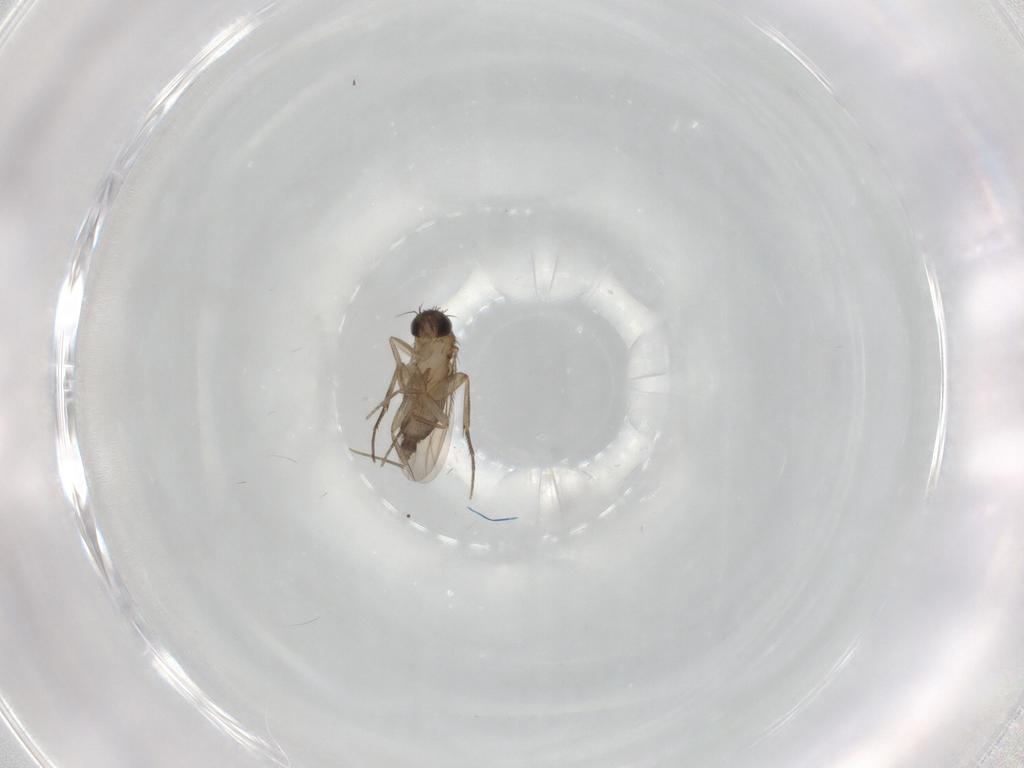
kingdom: Animalia
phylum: Arthropoda
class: Insecta
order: Diptera
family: Phoridae
